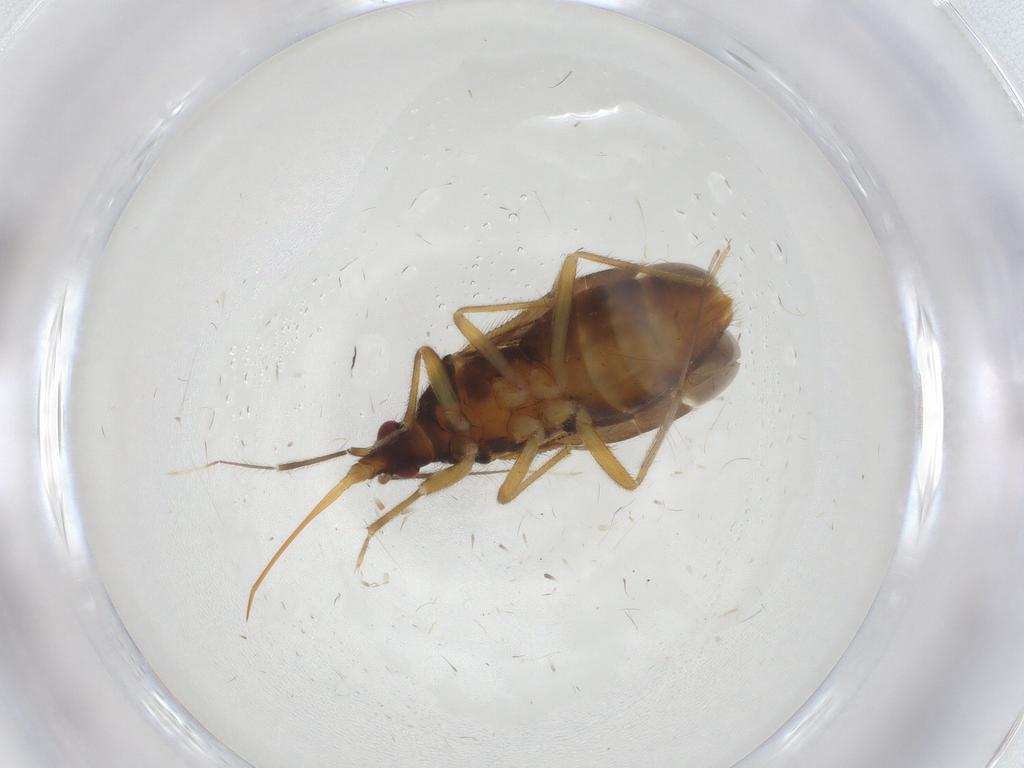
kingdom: Animalia
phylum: Arthropoda
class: Insecta
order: Hemiptera
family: Anthocoridae
